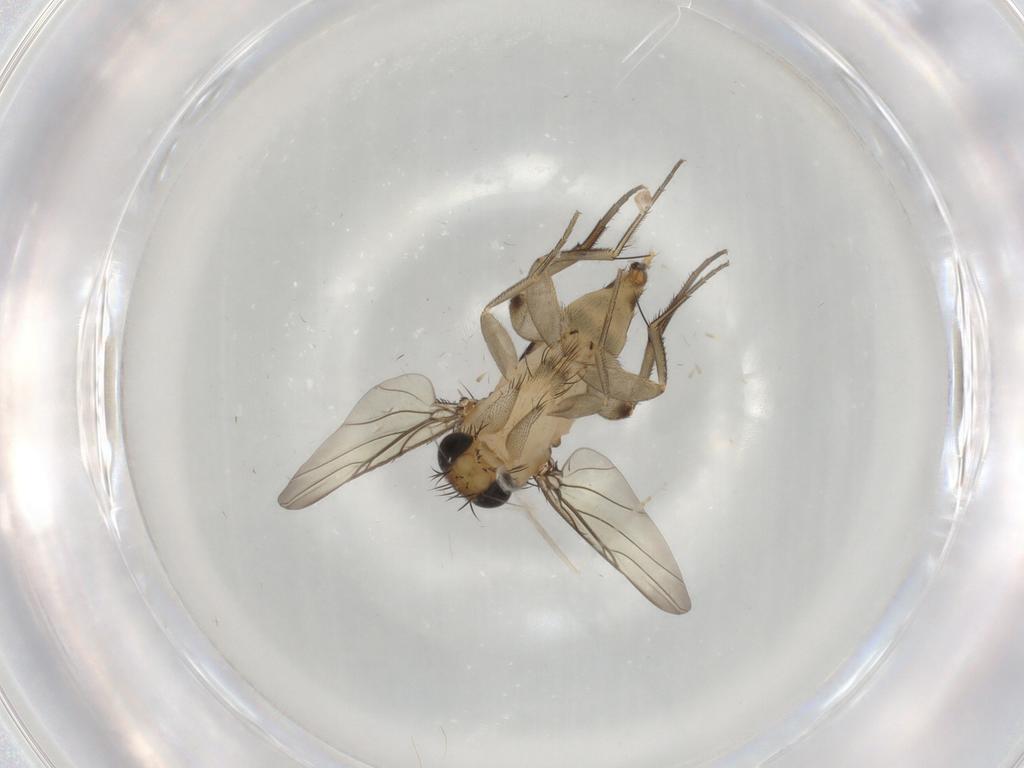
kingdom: Animalia
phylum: Arthropoda
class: Insecta
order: Diptera
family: Phoridae
